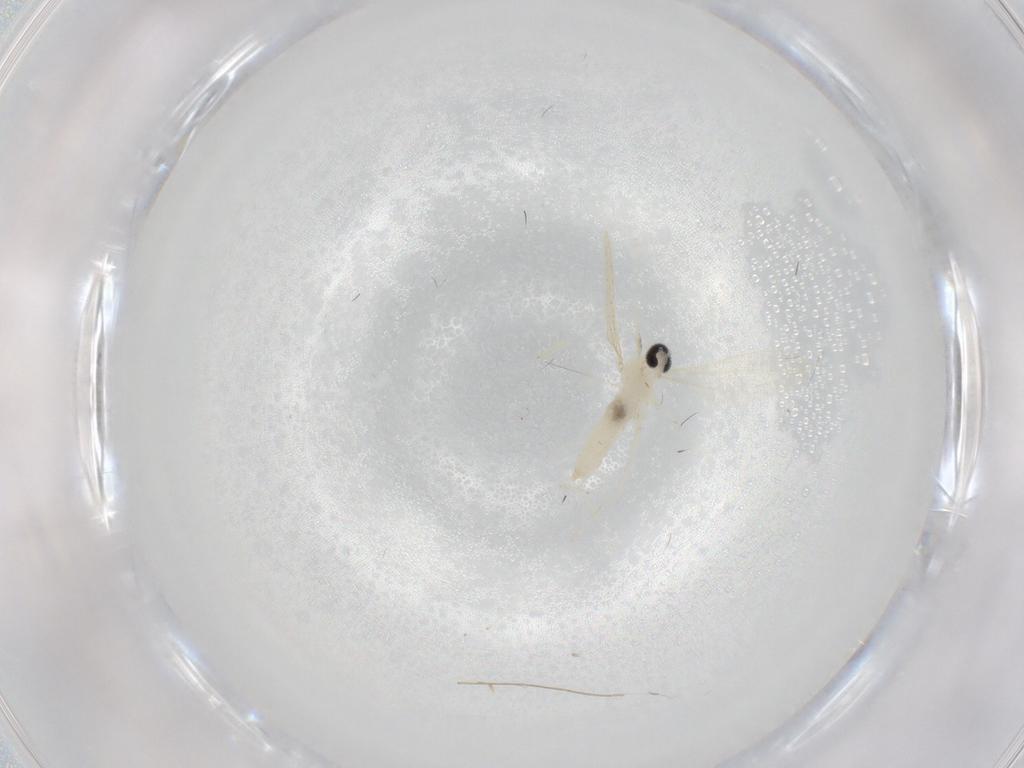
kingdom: Animalia
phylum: Arthropoda
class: Insecta
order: Diptera
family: Cecidomyiidae
